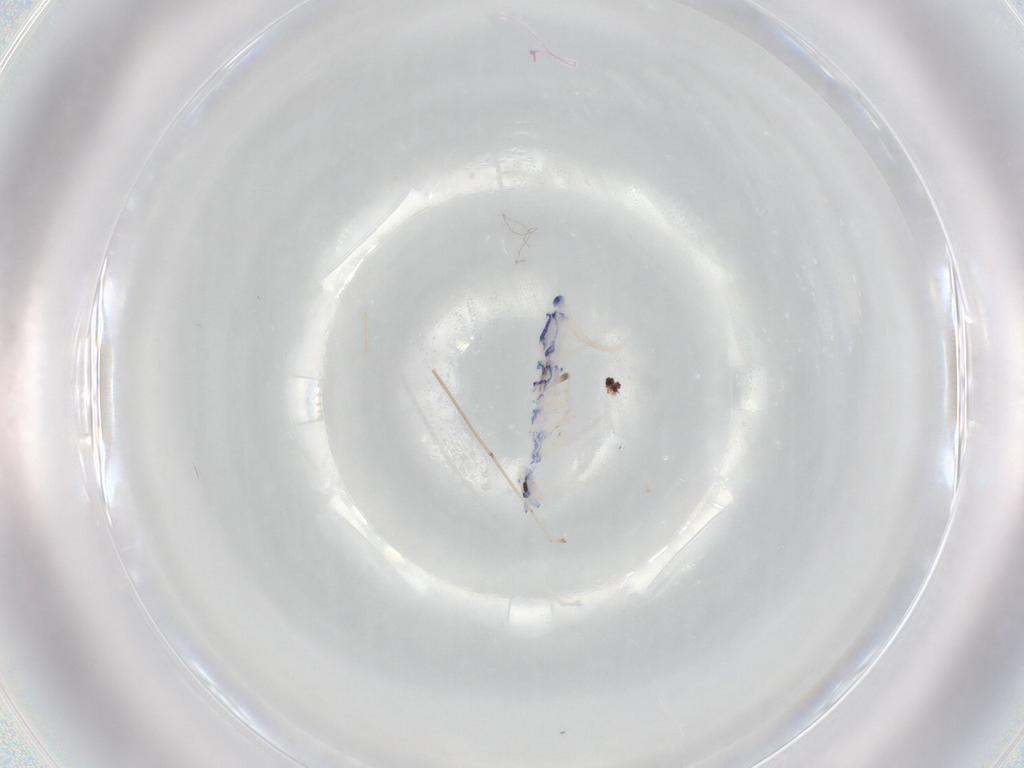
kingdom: Animalia
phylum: Arthropoda
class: Collembola
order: Entomobryomorpha
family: Entomobryidae
